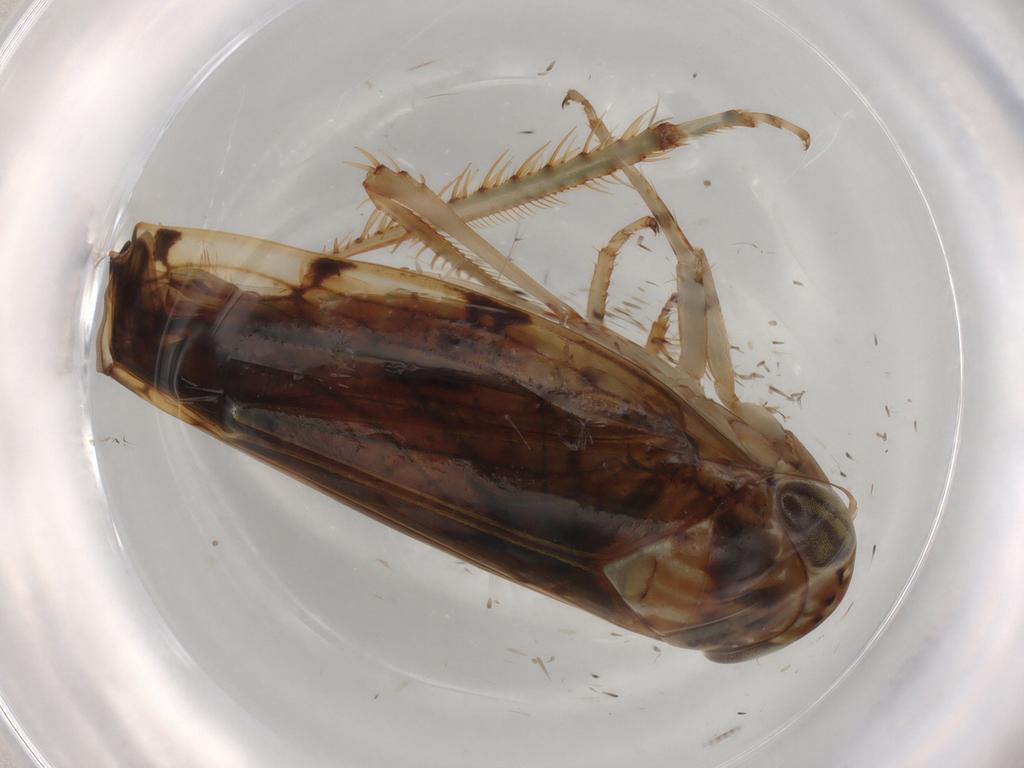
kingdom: Animalia
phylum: Arthropoda
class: Insecta
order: Hemiptera
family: Cicadellidae
